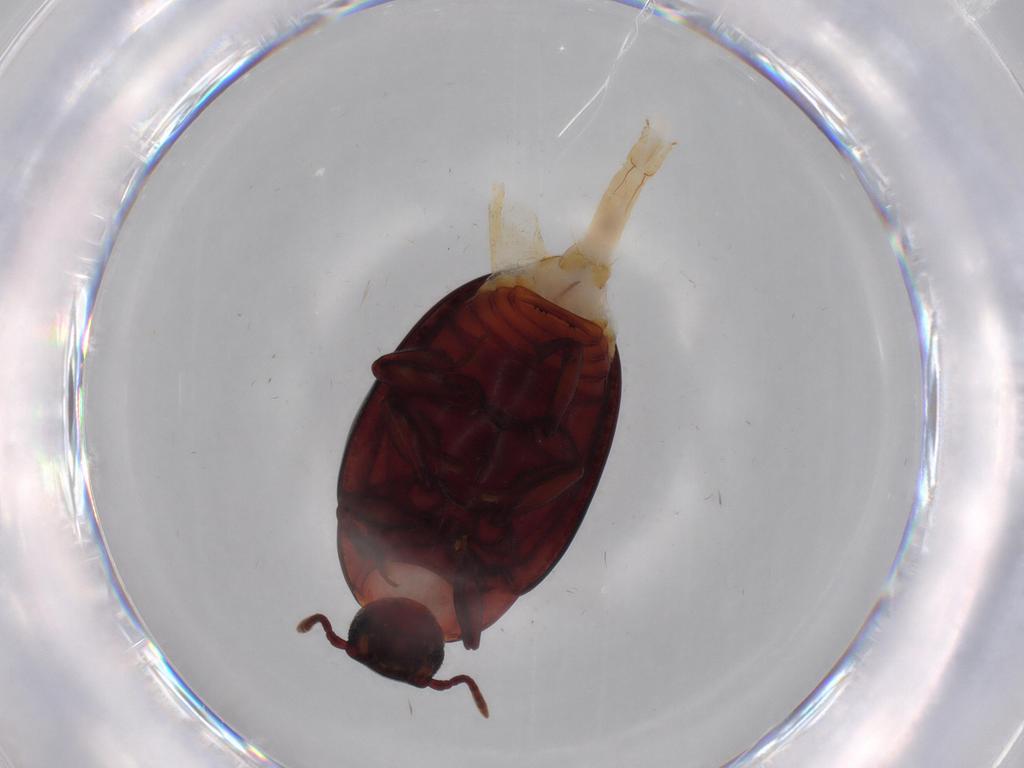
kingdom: Animalia
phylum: Arthropoda
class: Insecta
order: Coleoptera
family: Zopheridae
